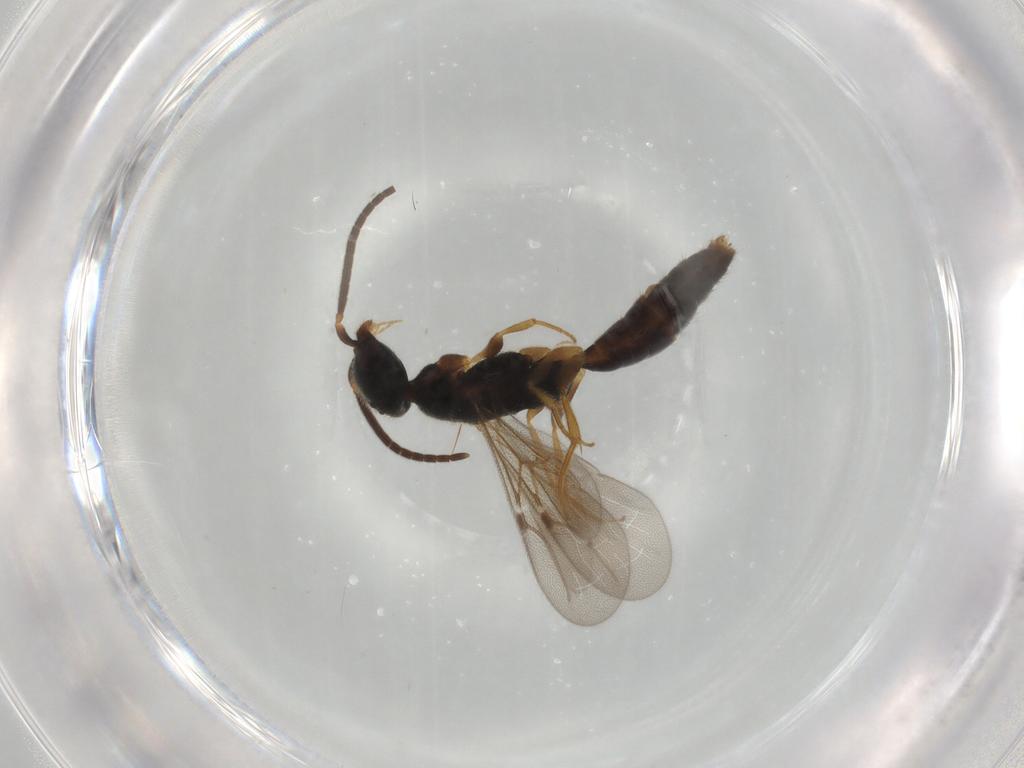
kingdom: Animalia
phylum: Arthropoda
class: Insecta
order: Hymenoptera
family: Bethylidae
